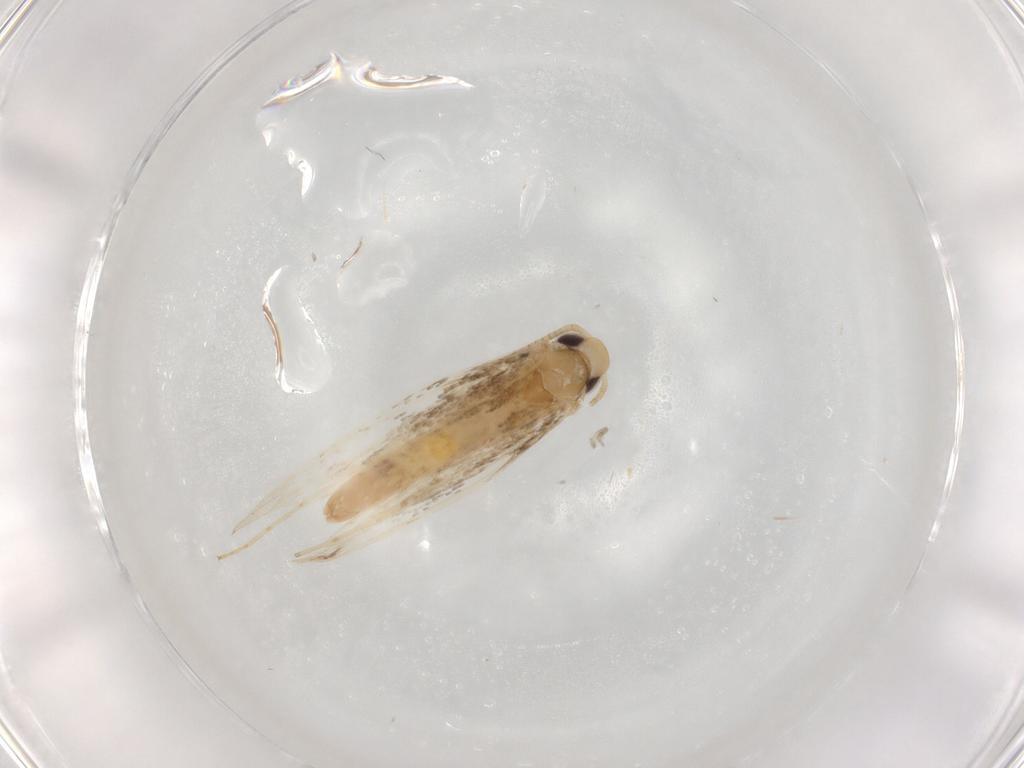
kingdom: Animalia
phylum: Arthropoda
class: Insecta
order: Lepidoptera
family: Gracillariidae
